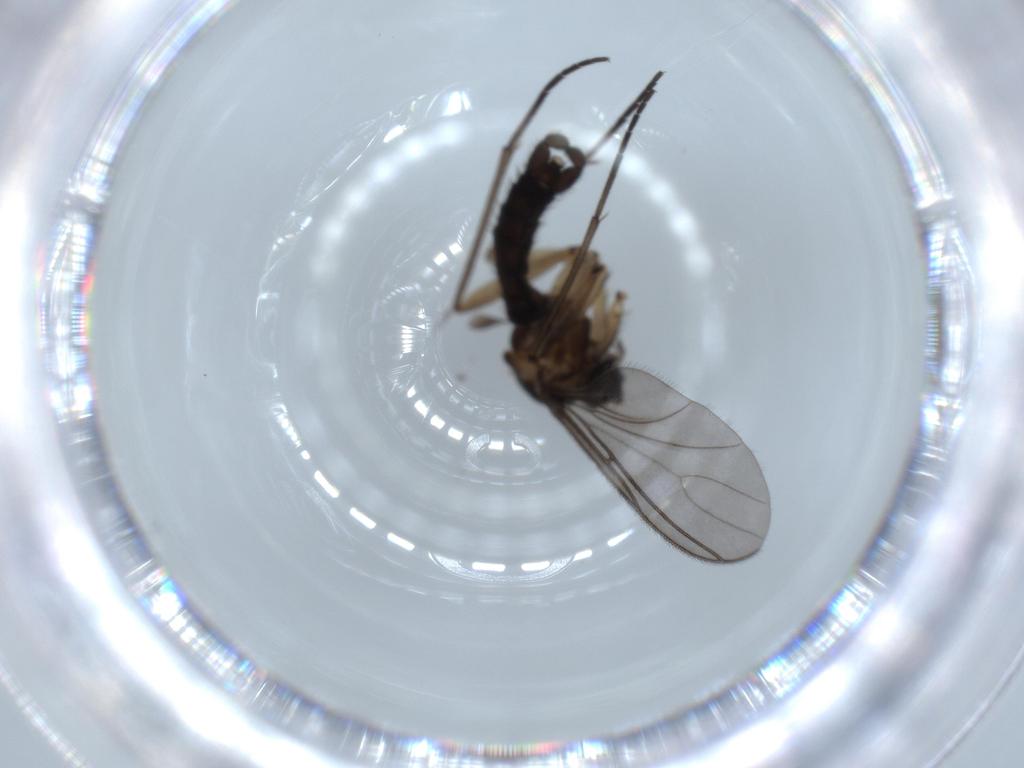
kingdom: Animalia
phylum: Arthropoda
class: Insecta
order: Diptera
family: Sciaridae
